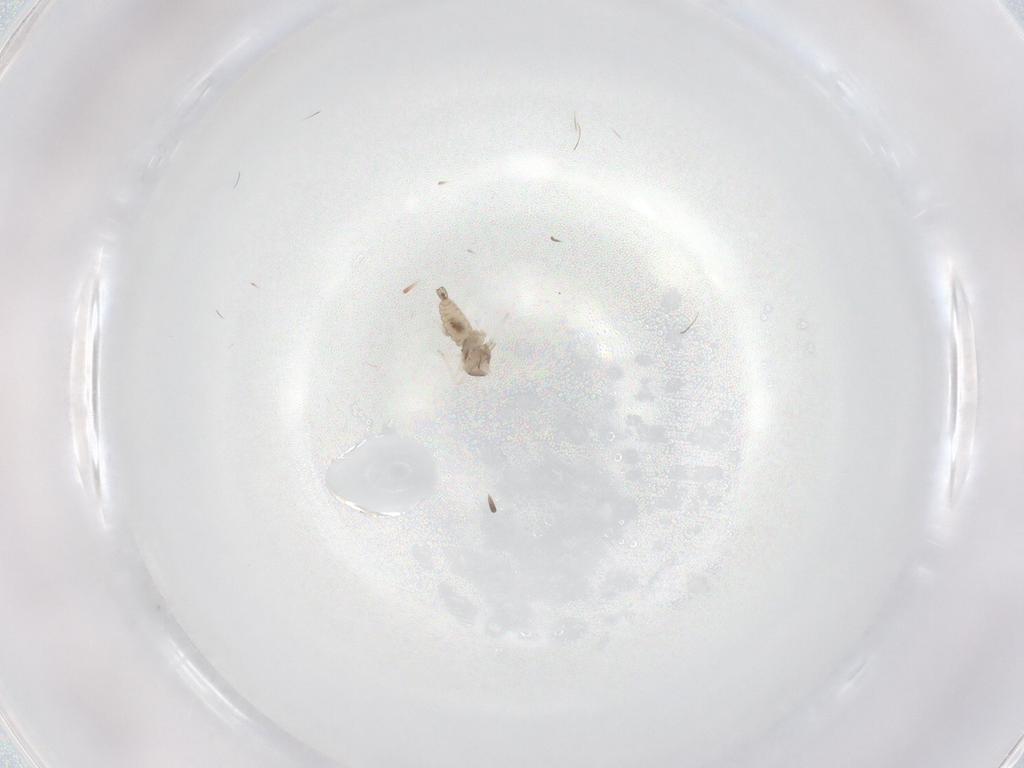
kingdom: Animalia
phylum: Arthropoda
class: Insecta
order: Diptera
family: Cecidomyiidae
